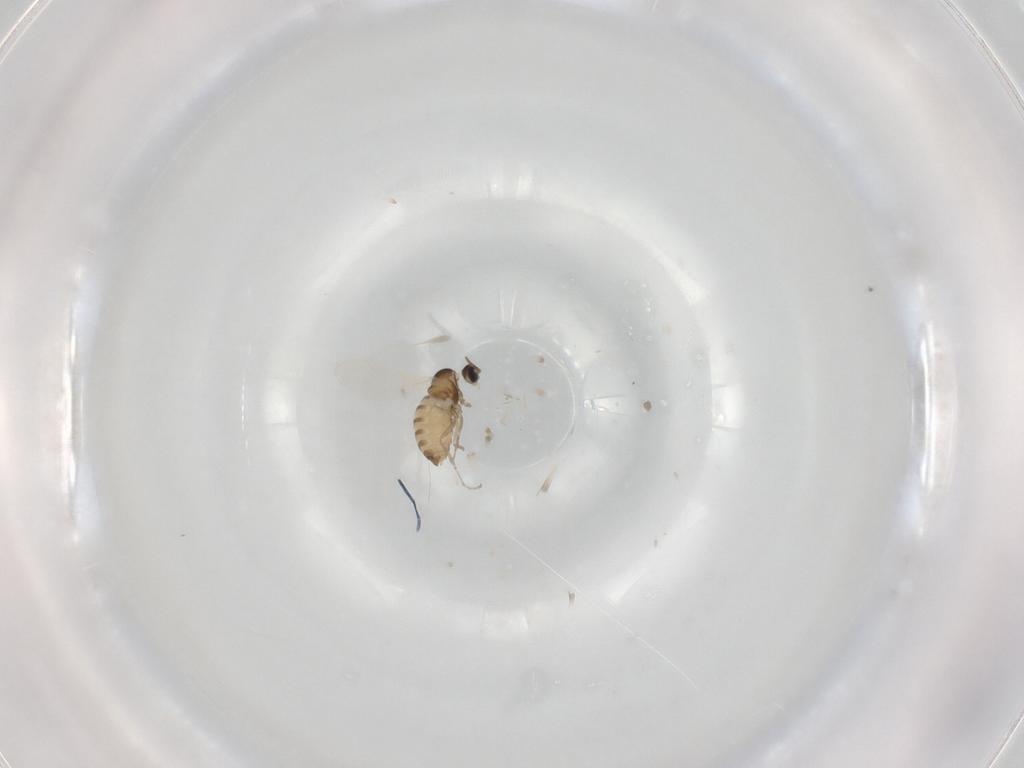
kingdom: Animalia
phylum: Arthropoda
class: Insecta
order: Diptera
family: Cecidomyiidae
